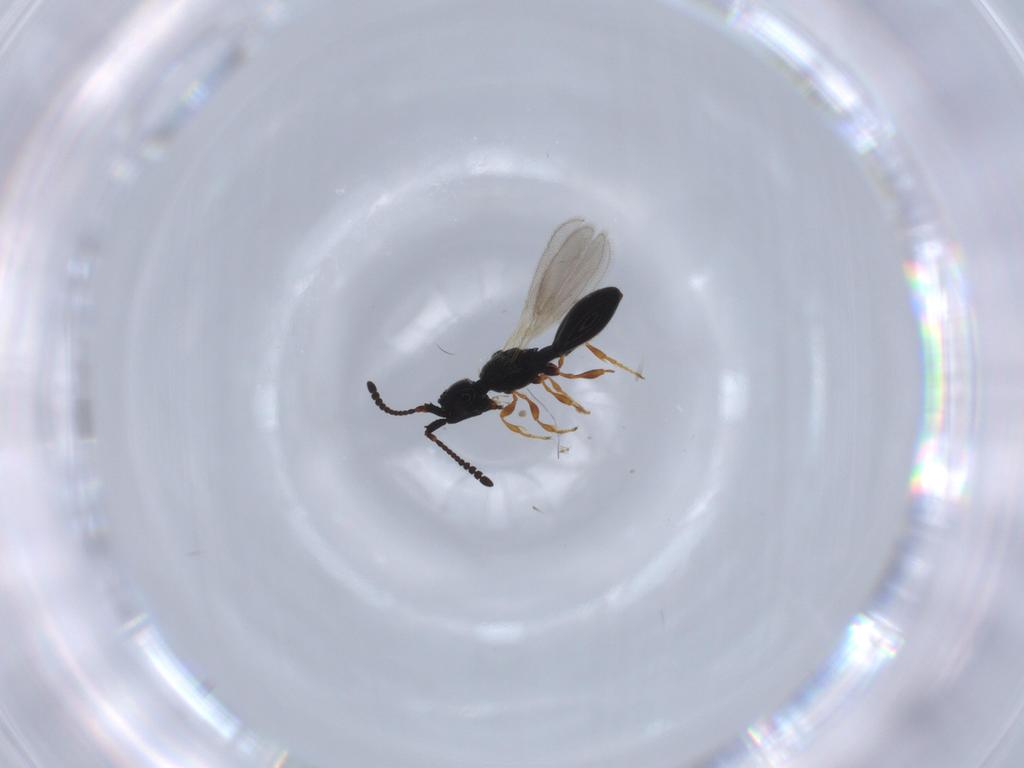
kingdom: Animalia
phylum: Arthropoda
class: Insecta
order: Hymenoptera
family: Diapriidae
